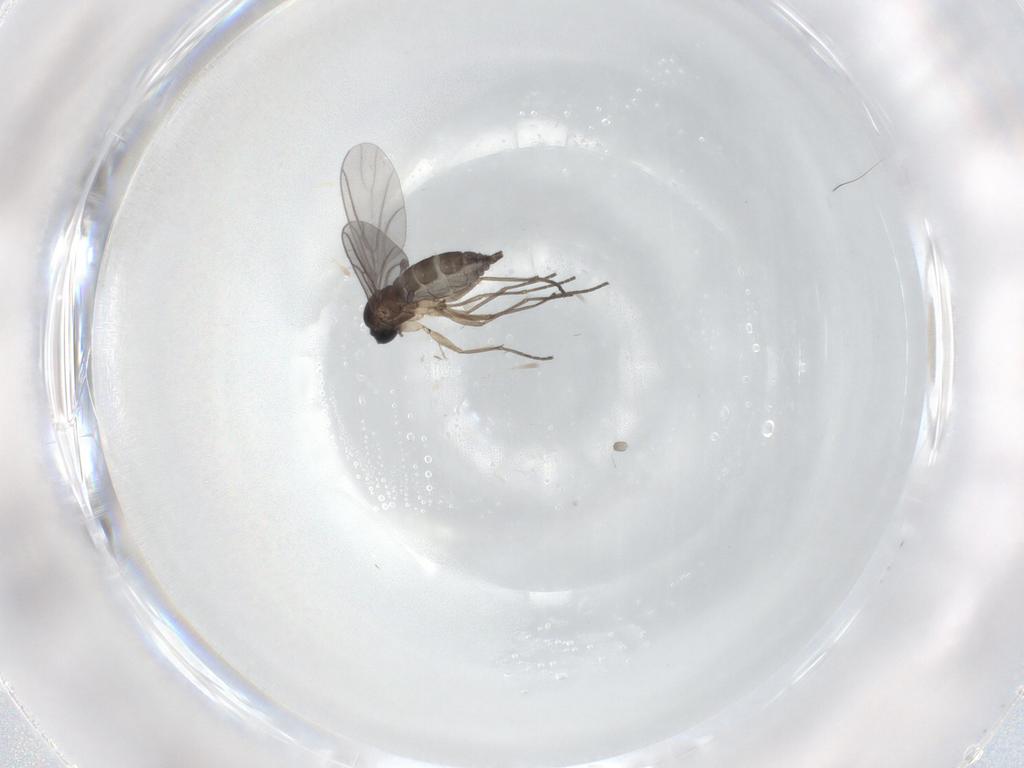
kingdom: Animalia
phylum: Arthropoda
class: Insecta
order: Diptera
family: Sciaridae
